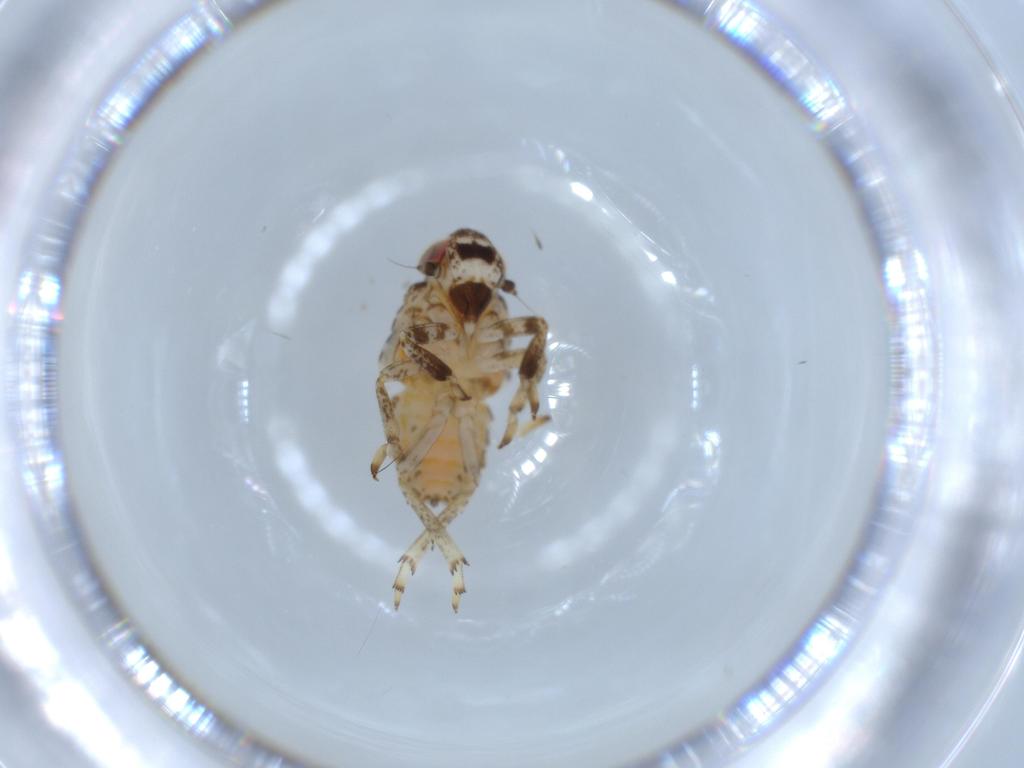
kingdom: Animalia
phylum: Arthropoda
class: Insecta
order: Hemiptera
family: Issidae
